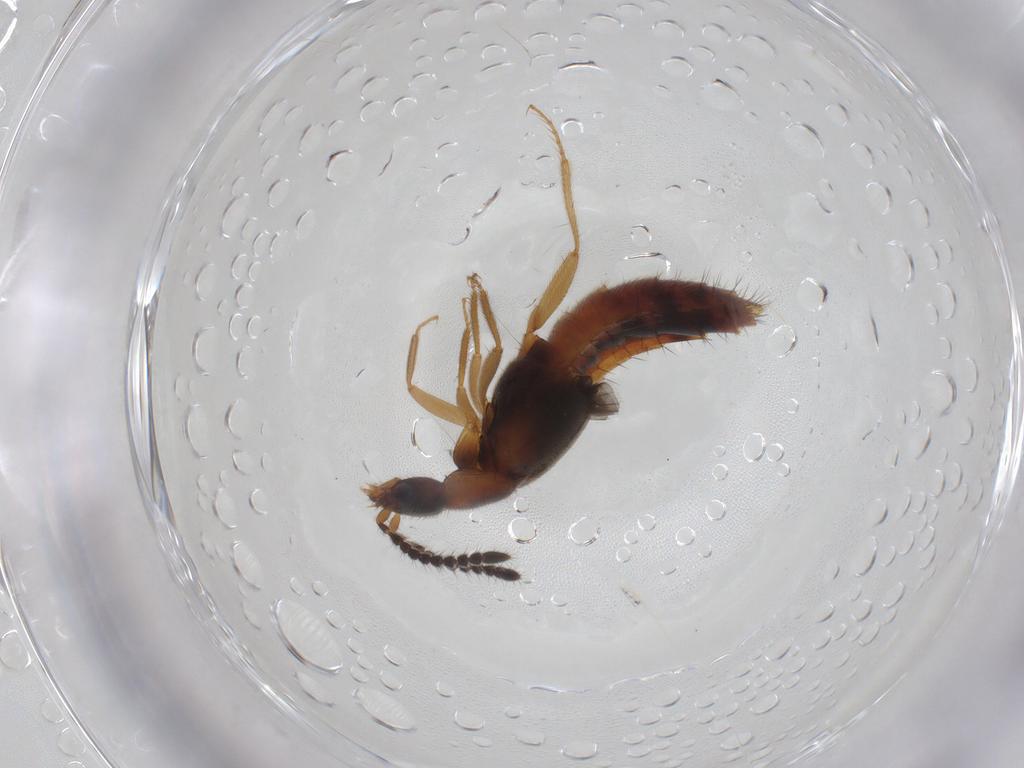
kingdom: Animalia
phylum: Arthropoda
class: Insecta
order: Coleoptera
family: Staphylinidae
